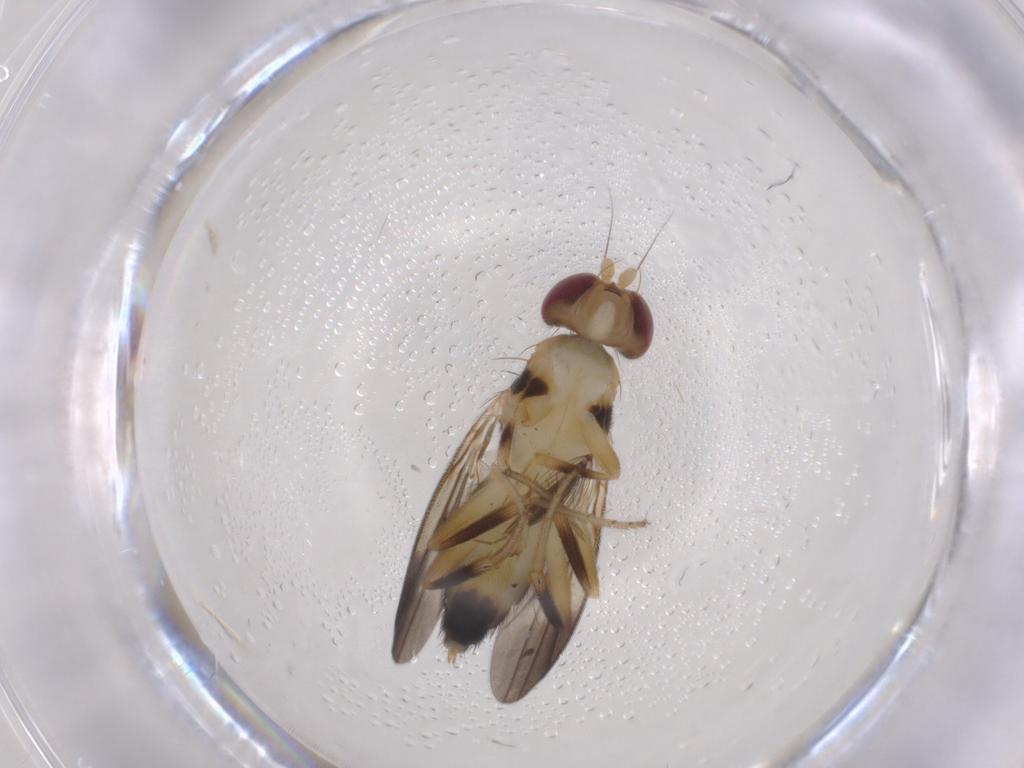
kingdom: Animalia
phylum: Arthropoda
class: Insecta
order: Diptera
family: Clusiidae
